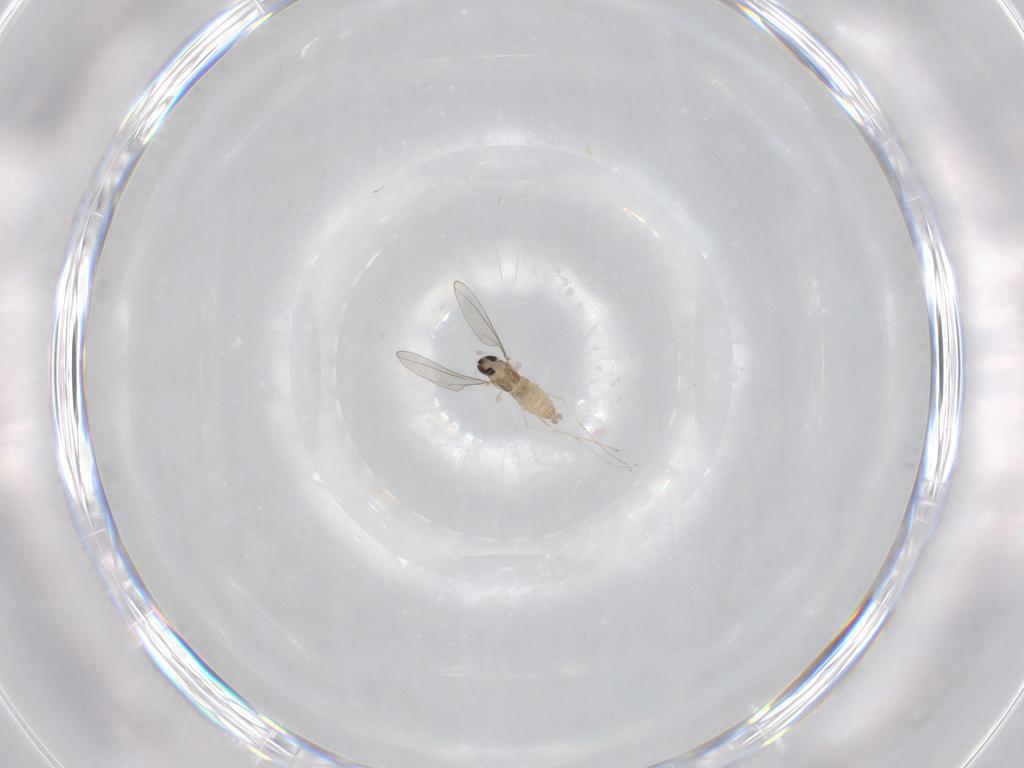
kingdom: Animalia
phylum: Arthropoda
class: Insecta
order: Diptera
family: Cecidomyiidae
